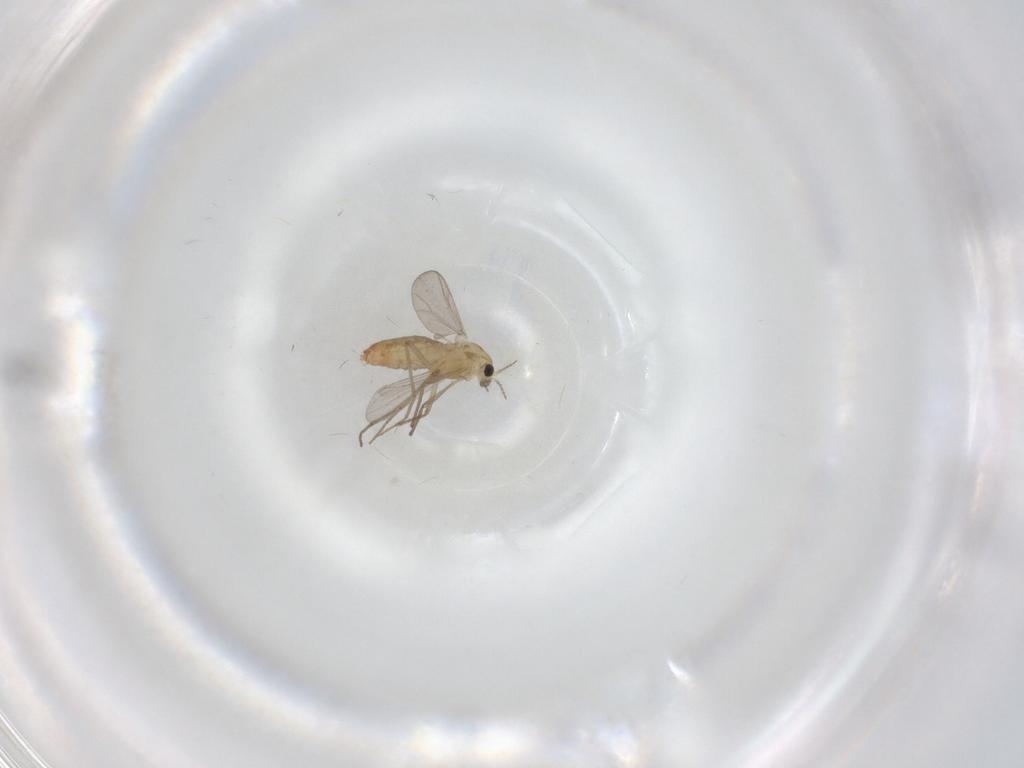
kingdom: Animalia
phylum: Arthropoda
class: Insecta
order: Diptera
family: Chironomidae
